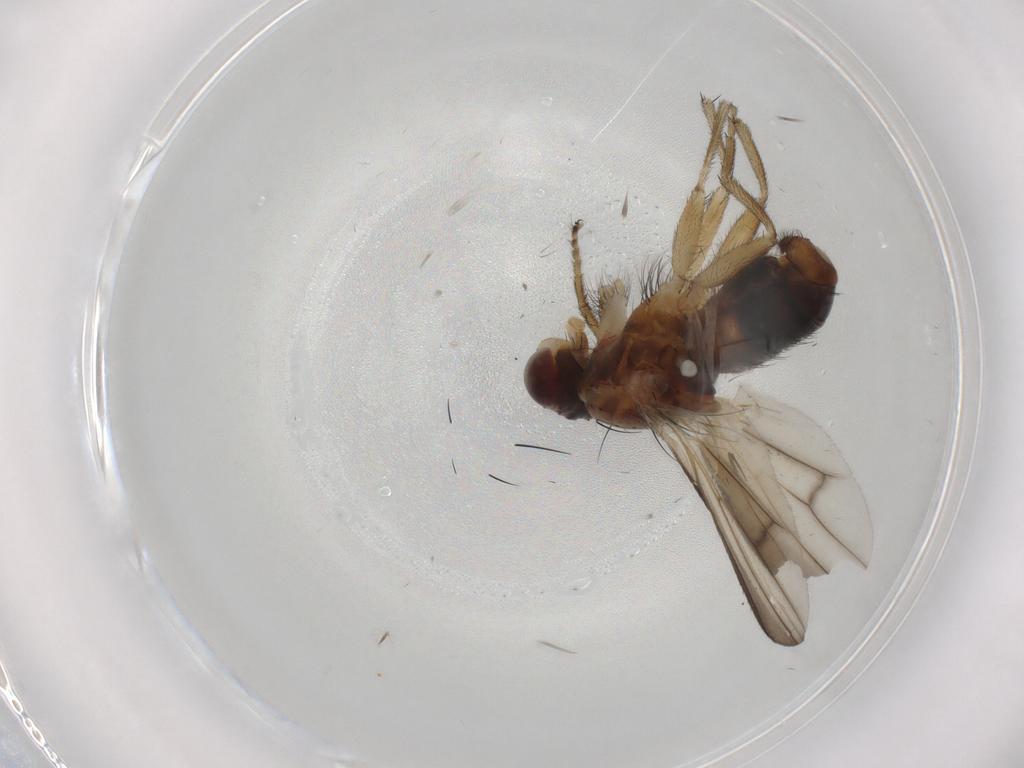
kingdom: Animalia
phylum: Arthropoda
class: Insecta
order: Diptera
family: Heleomyzidae
